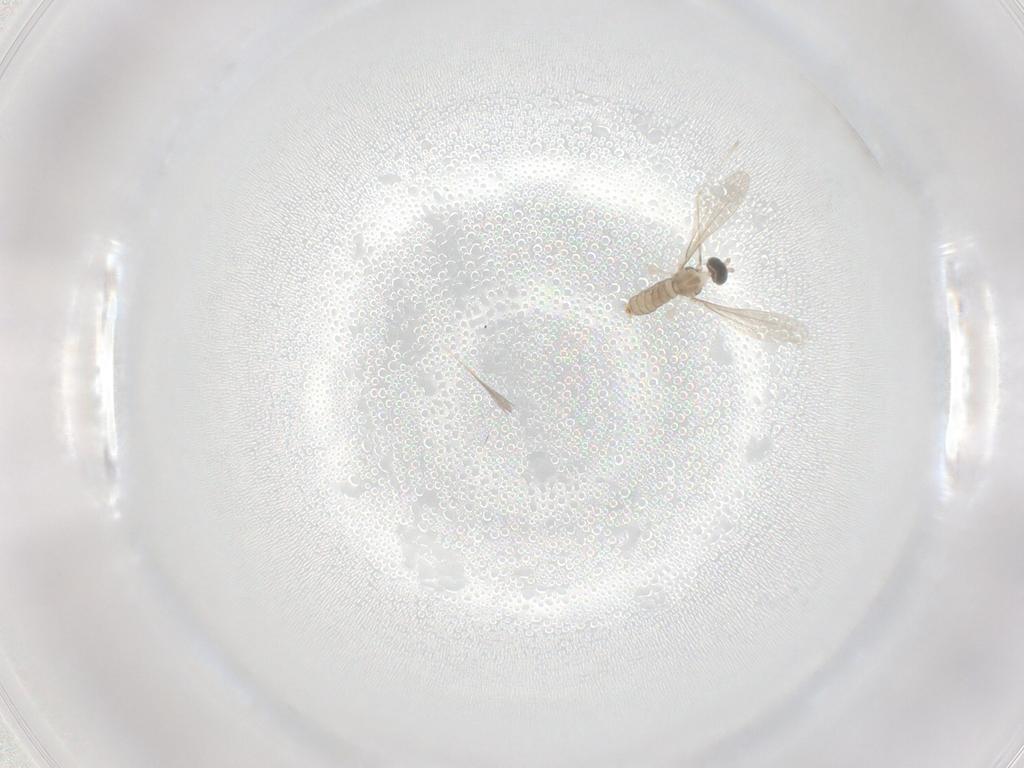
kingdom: Animalia
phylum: Arthropoda
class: Insecta
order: Diptera
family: Cecidomyiidae
